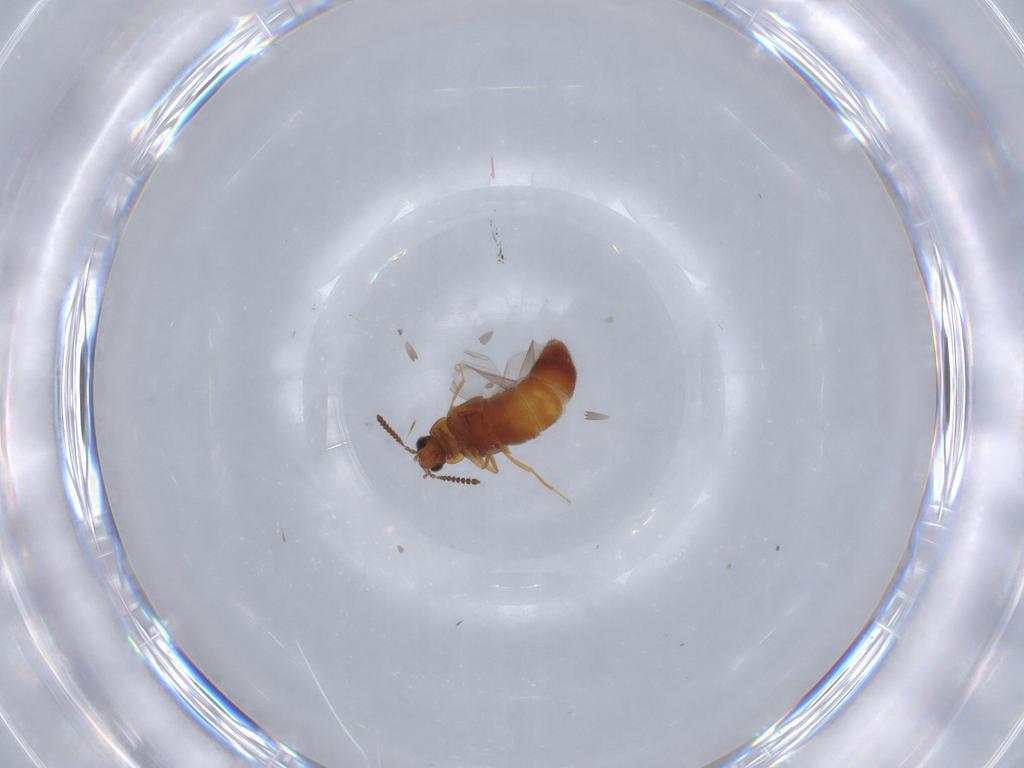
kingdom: Animalia
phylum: Arthropoda
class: Insecta
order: Coleoptera
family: Staphylinidae
